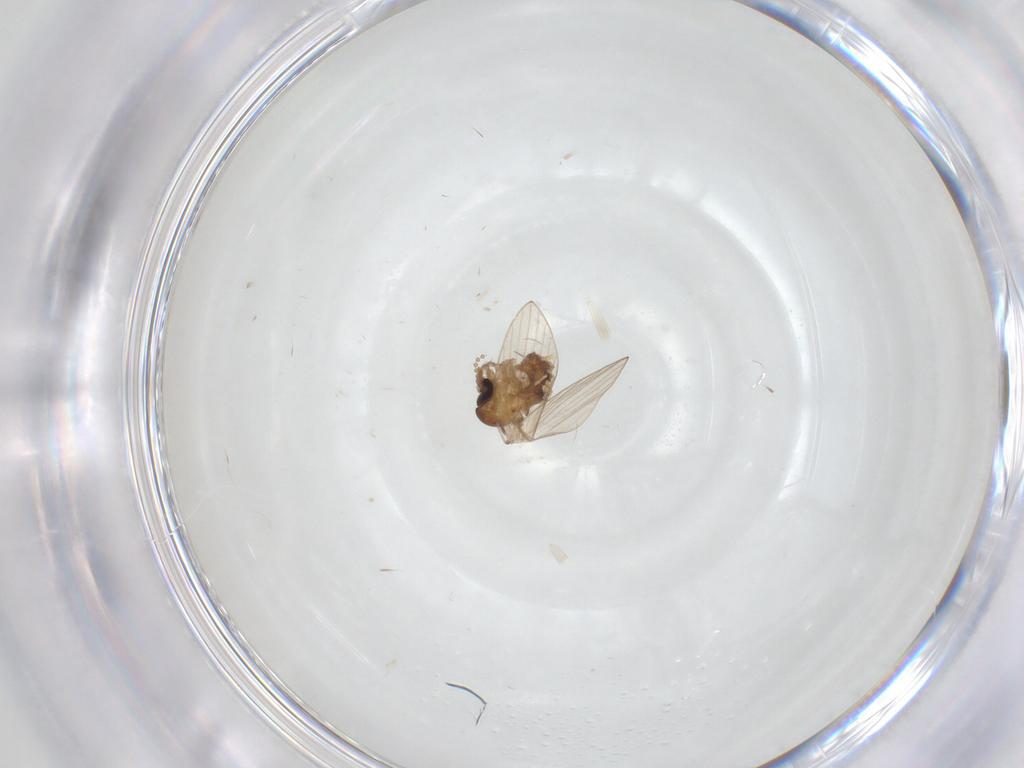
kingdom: Animalia
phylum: Arthropoda
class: Insecta
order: Diptera
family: Psychodidae
